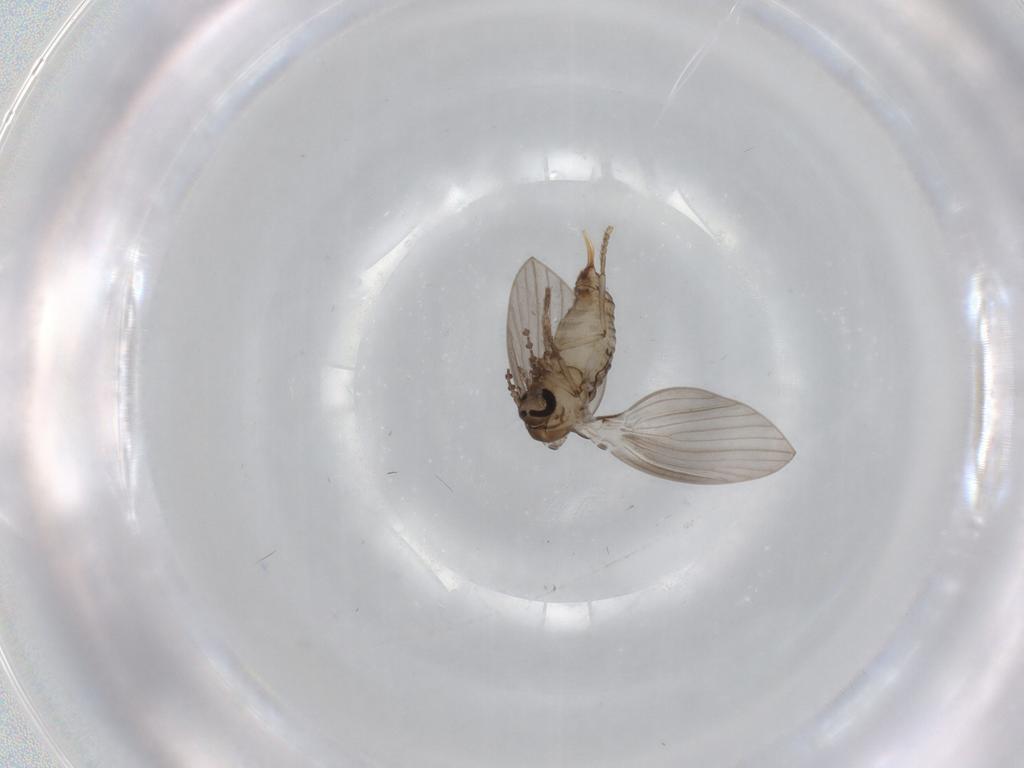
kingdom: Animalia
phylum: Arthropoda
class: Insecta
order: Diptera
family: Psychodidae
